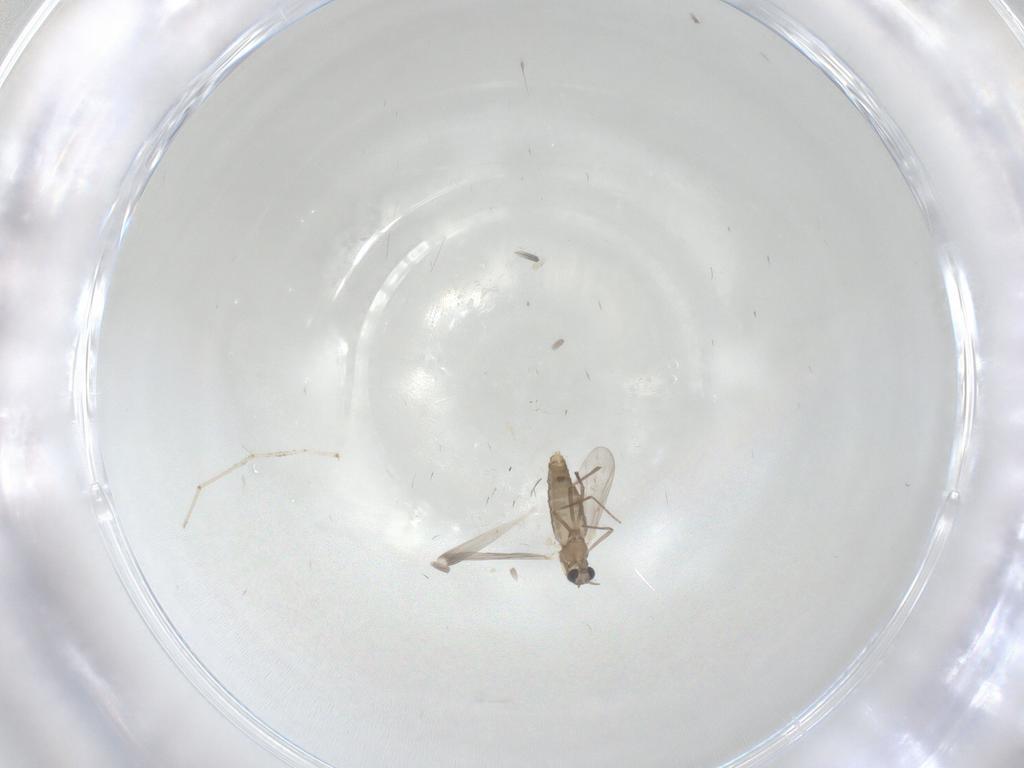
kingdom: Animalia
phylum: Arthropoda
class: Insecta
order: Diptera
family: Chironomidae
